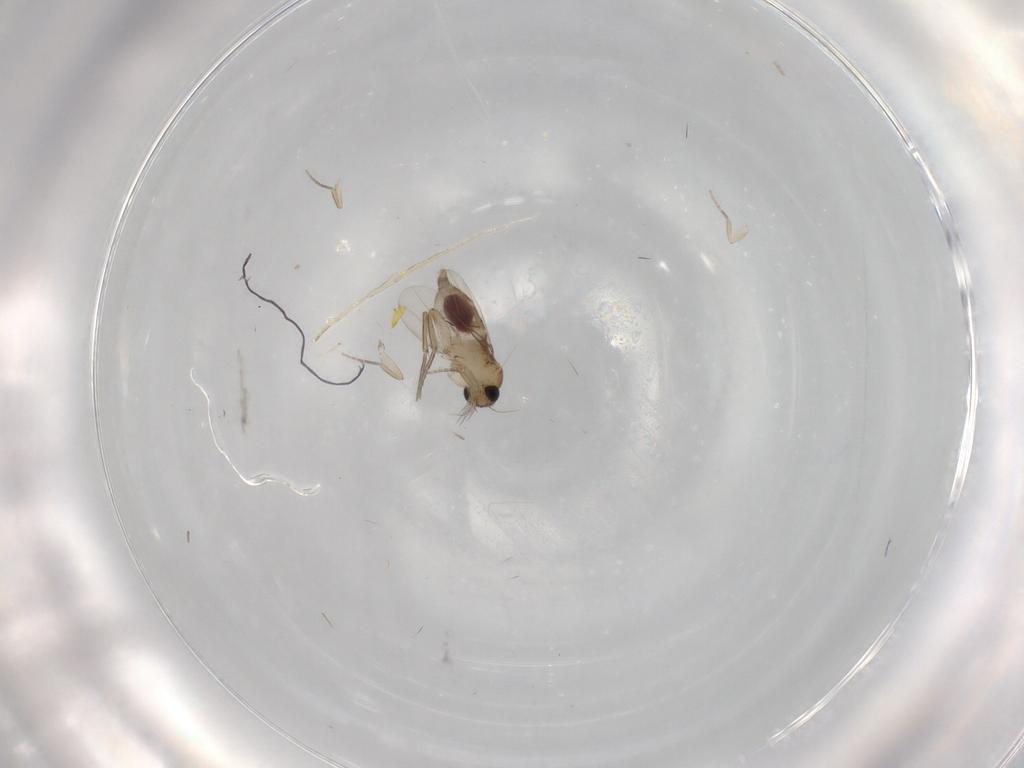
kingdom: Animalia
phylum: Arthropoda
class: Insecta
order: Diptera
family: Phoridae
